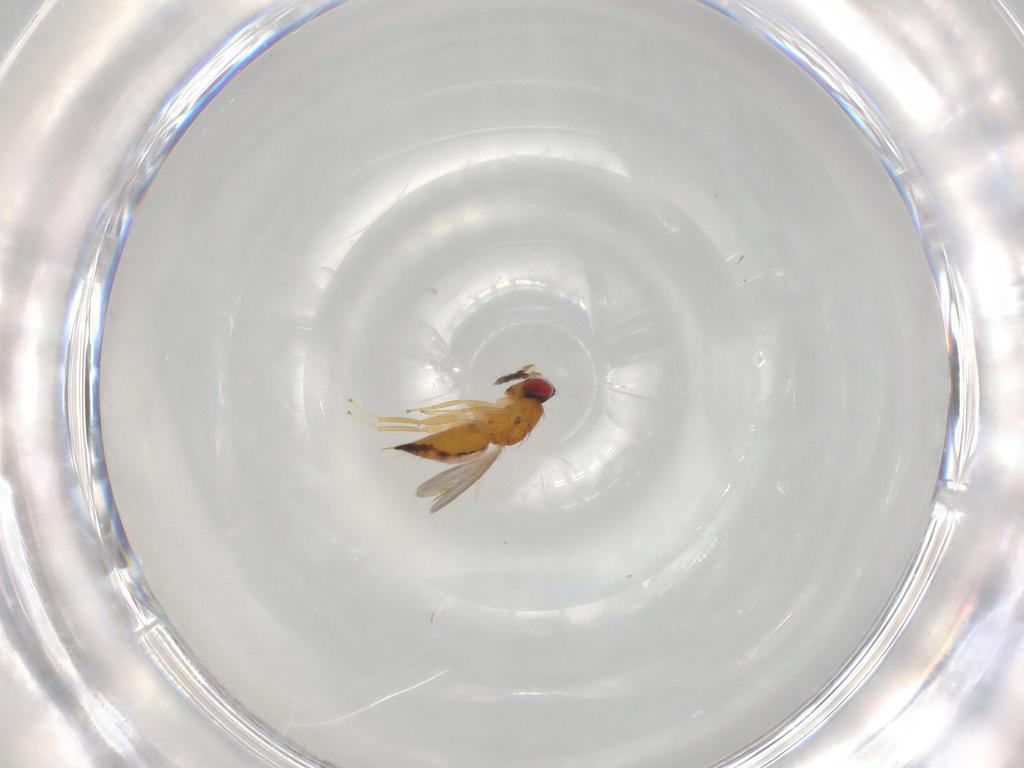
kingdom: Animalia
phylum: Arthropoda
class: Insecta
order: Hymenoptera
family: Eulophidae
